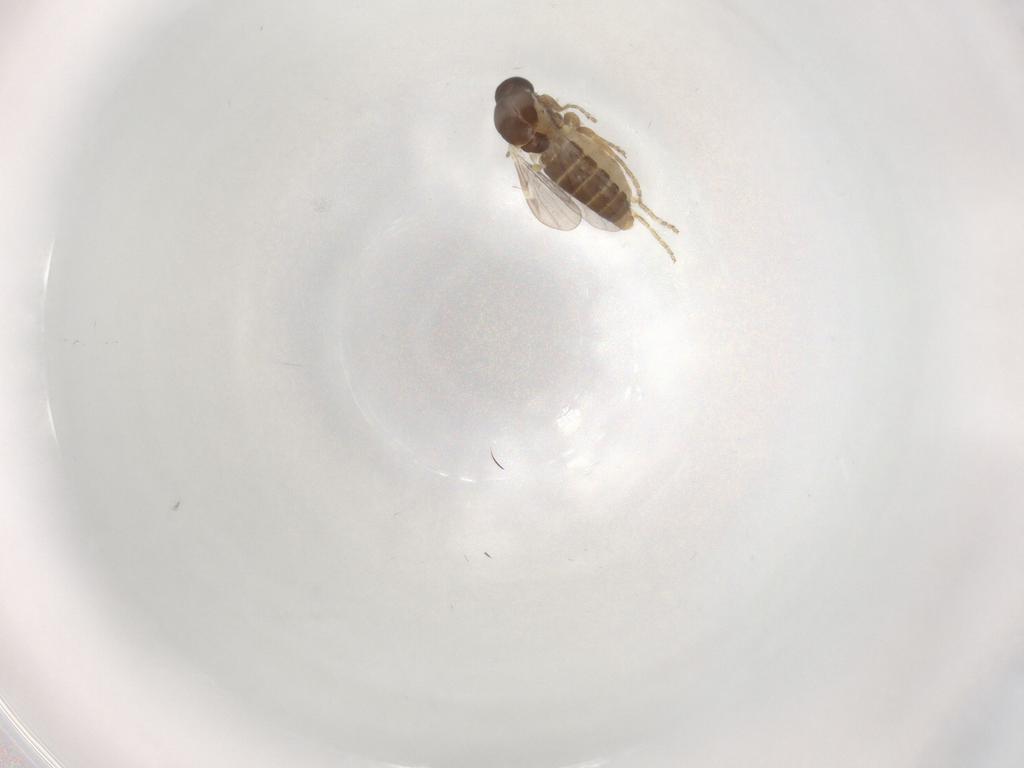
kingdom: Animalia
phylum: Arthropoda
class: Insecta
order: Diptera
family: Ceratopogonidae
